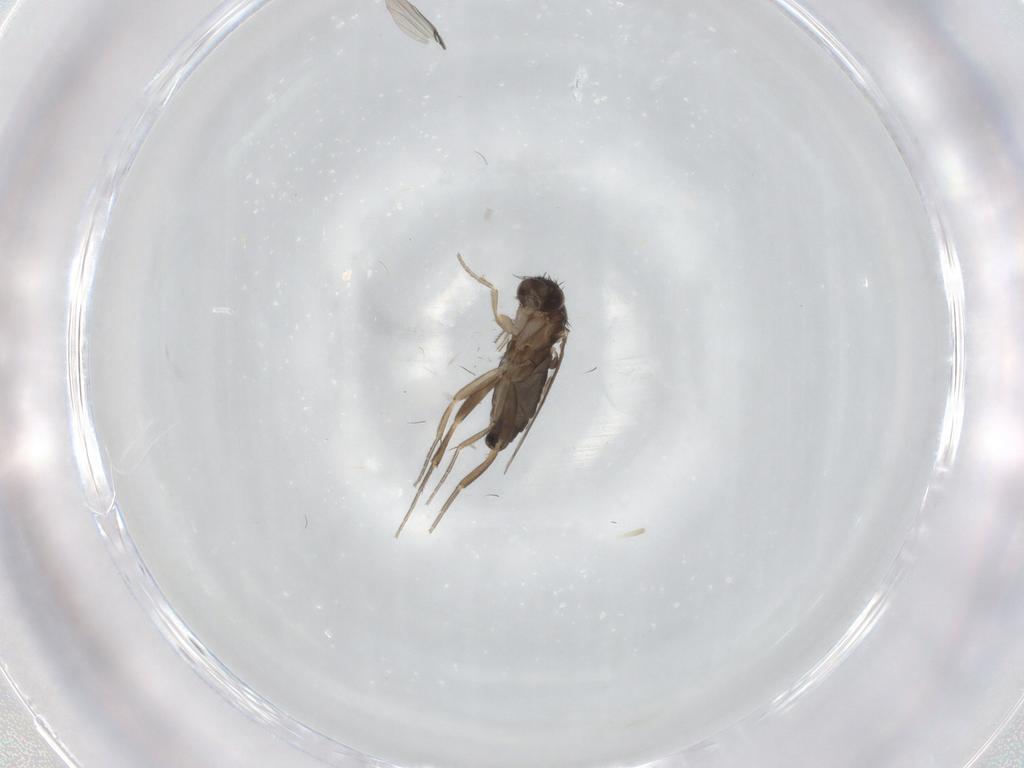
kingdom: Animalia
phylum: Arthropoda
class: Insecta
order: Diptera
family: Phoridae
